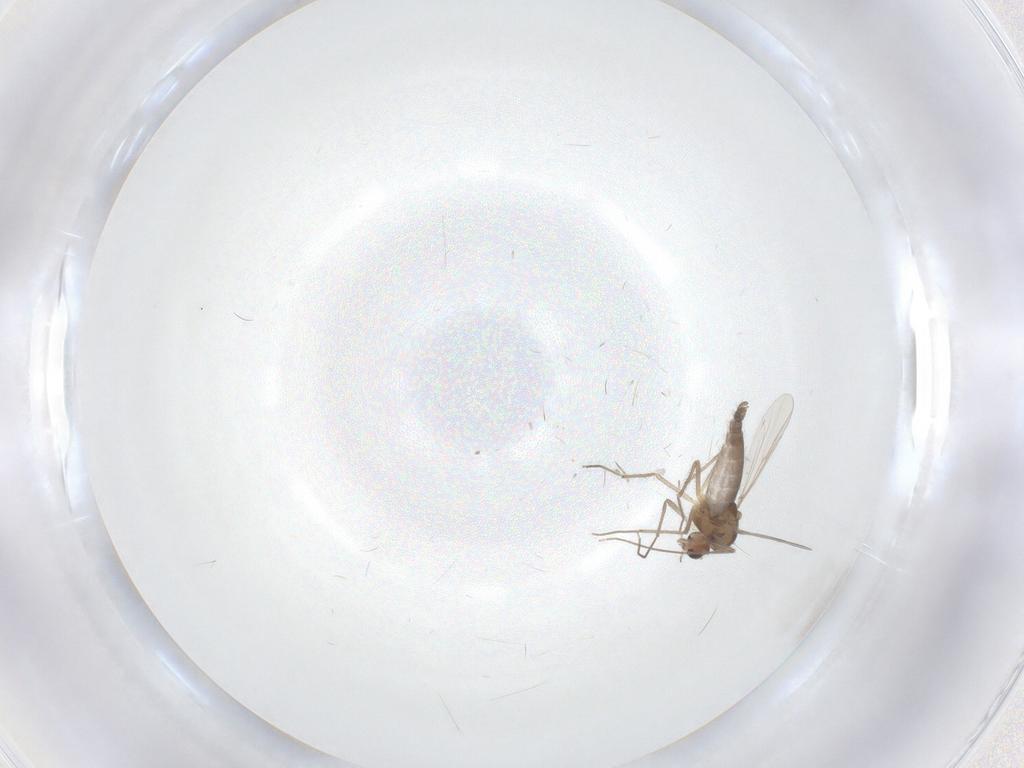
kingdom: Animalia
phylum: Arthropoda
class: Insecta
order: Diptera
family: Chironomidae
